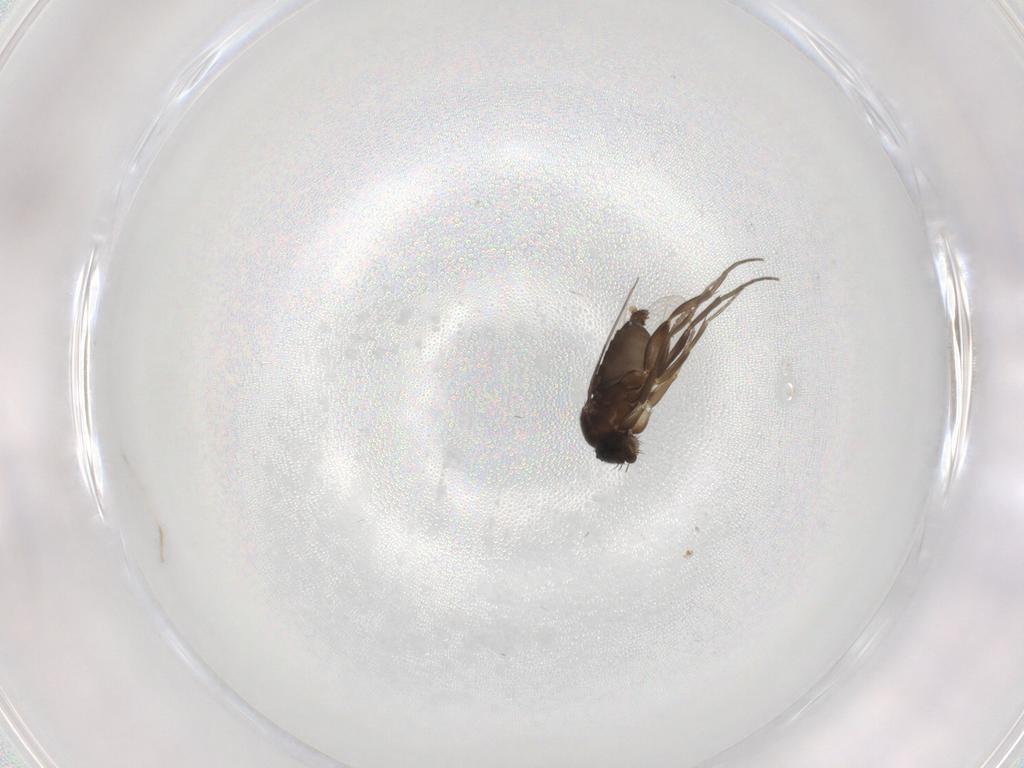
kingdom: Animalia
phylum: Arthropoda
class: Insecta
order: Diptera
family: Phoridae
